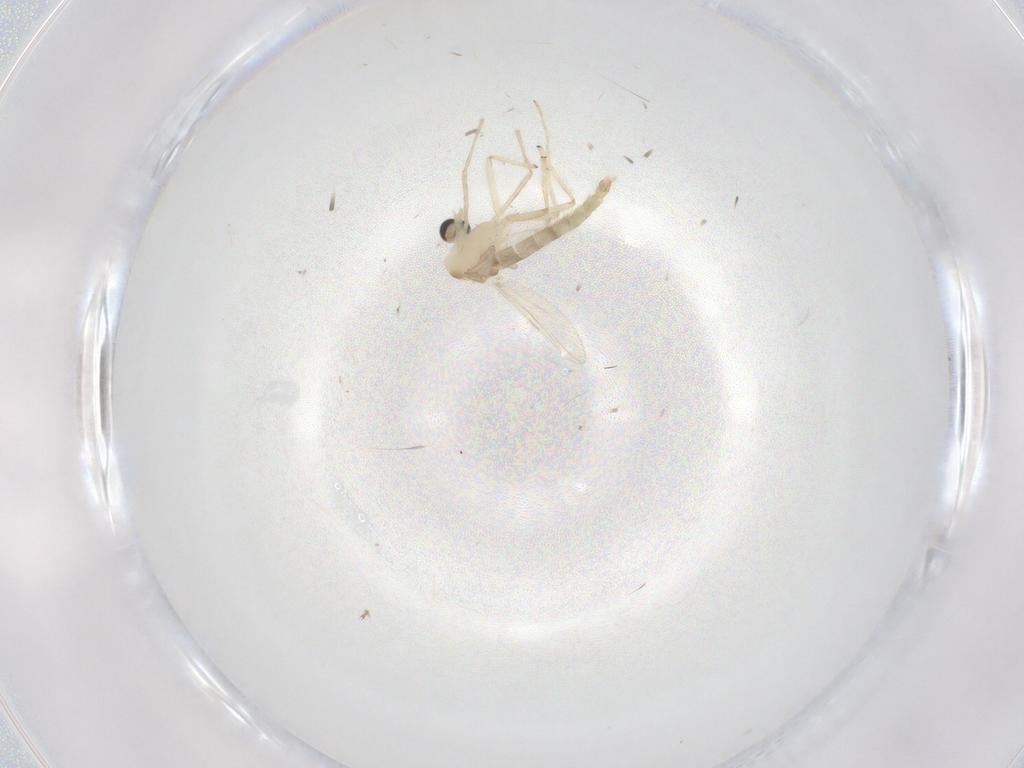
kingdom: Animalia
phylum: Arthropoda
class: Insecta
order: Diptera
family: Chironomidae
